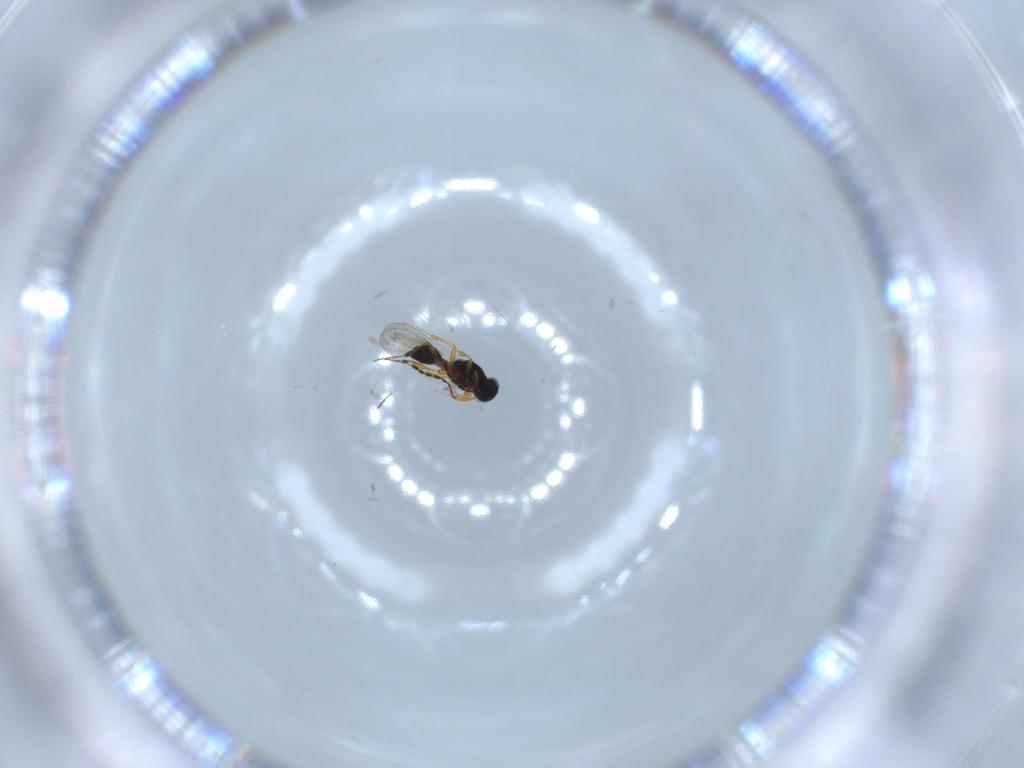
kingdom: Animalia
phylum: Arthropoda
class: Insecta
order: Hymenoptera
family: Platygastridae
